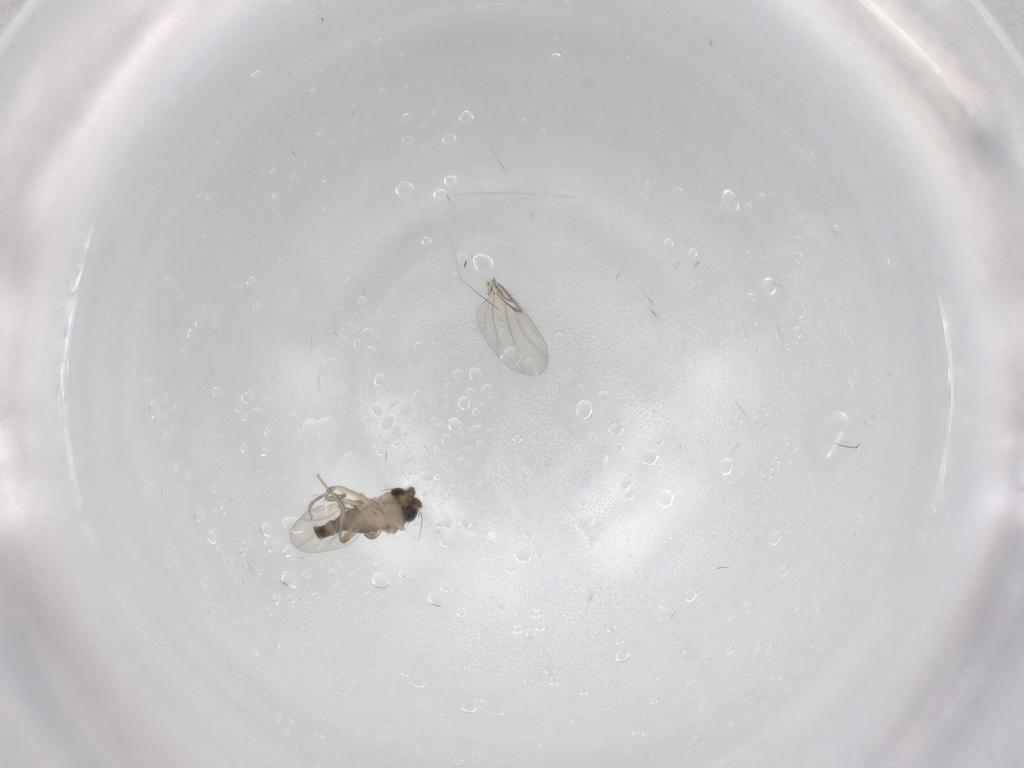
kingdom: Animalia
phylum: Arthropoda
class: Insecta
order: Diptera
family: Phoridae
